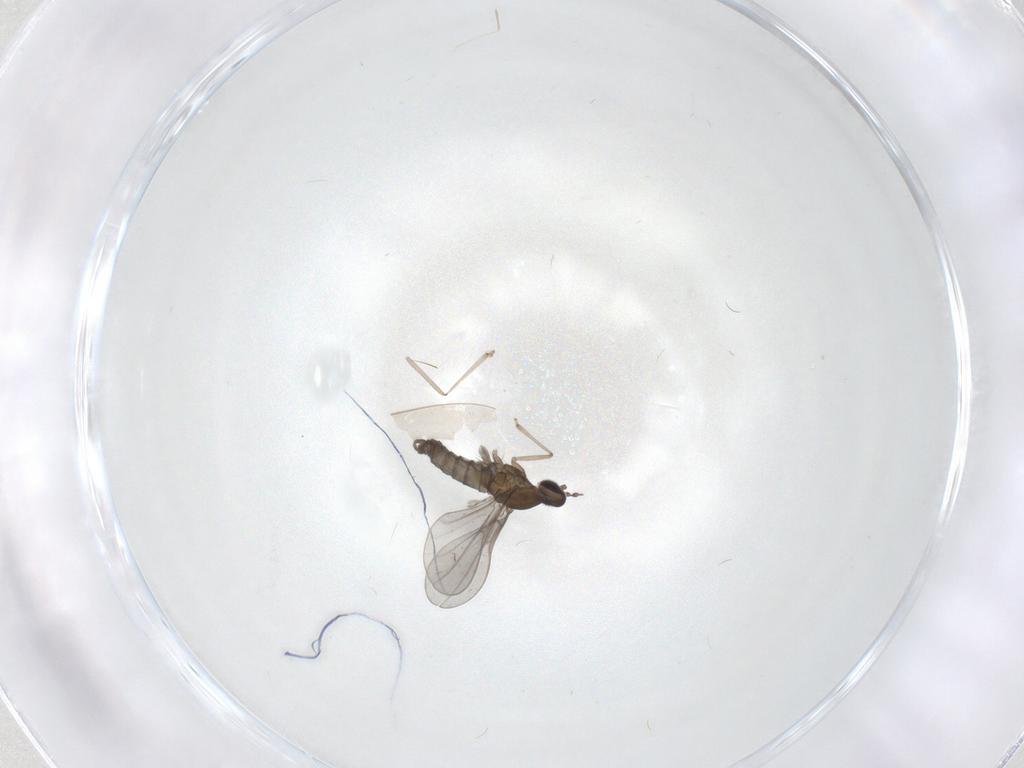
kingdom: Animalia
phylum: Arthropoda
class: Insecta
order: Diptera
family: Cecidomyiidae
